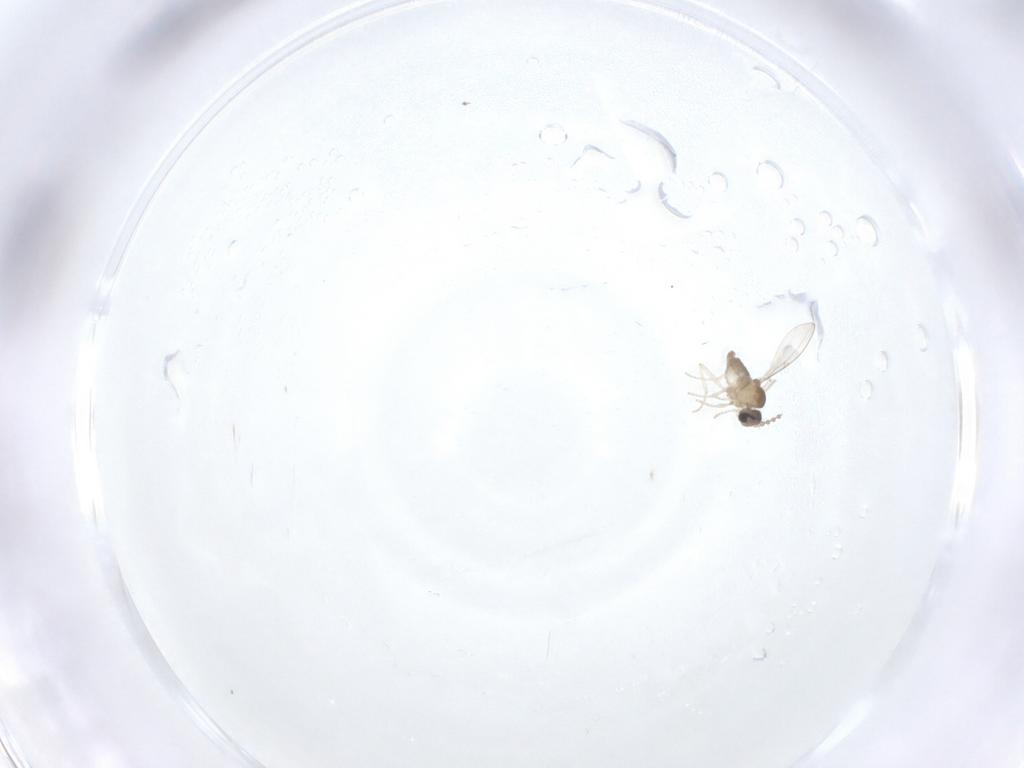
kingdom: Animalia
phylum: Arthropoda
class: Insecta
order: Diptera
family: Cecidomyiidae
